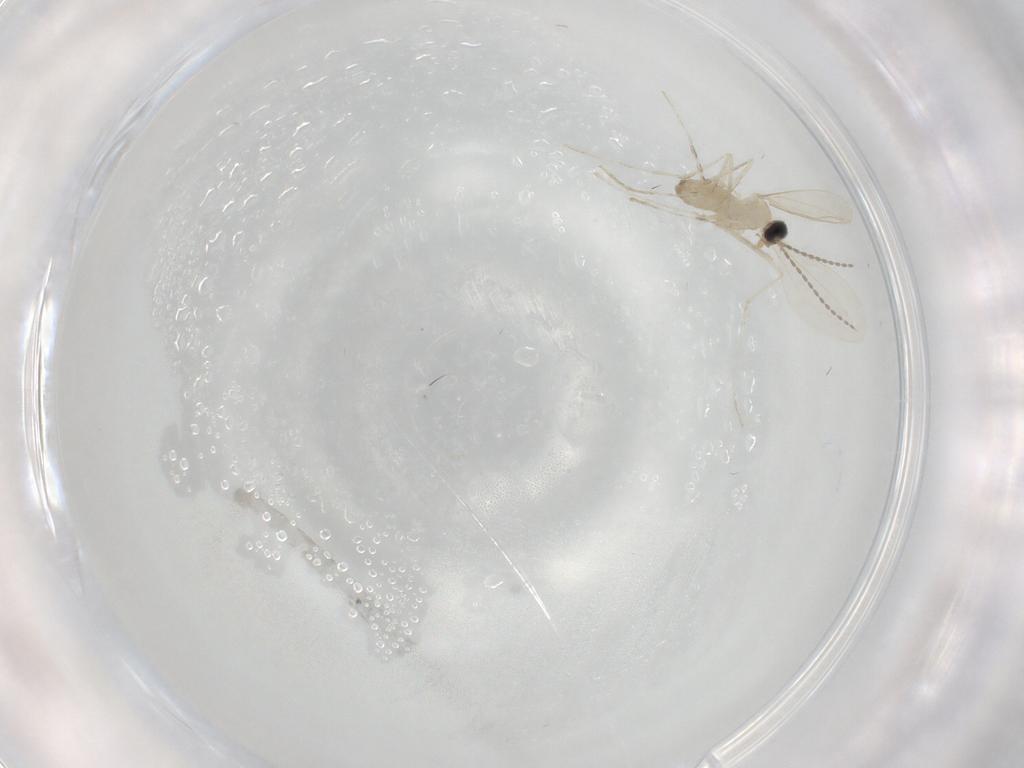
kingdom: Animalia
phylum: Arthropoda
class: Insecta
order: Diptera
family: Cecidomyiidae
